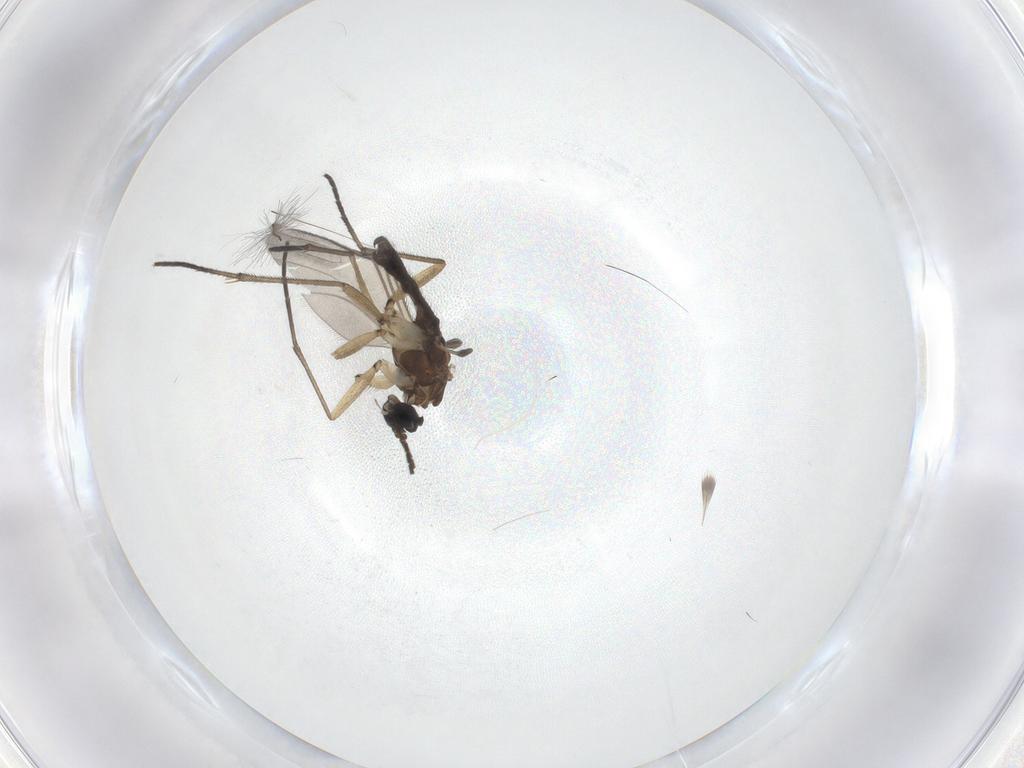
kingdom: Animalia
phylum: Arthropoda
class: Insecta
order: Diptera
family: Sciaridae
